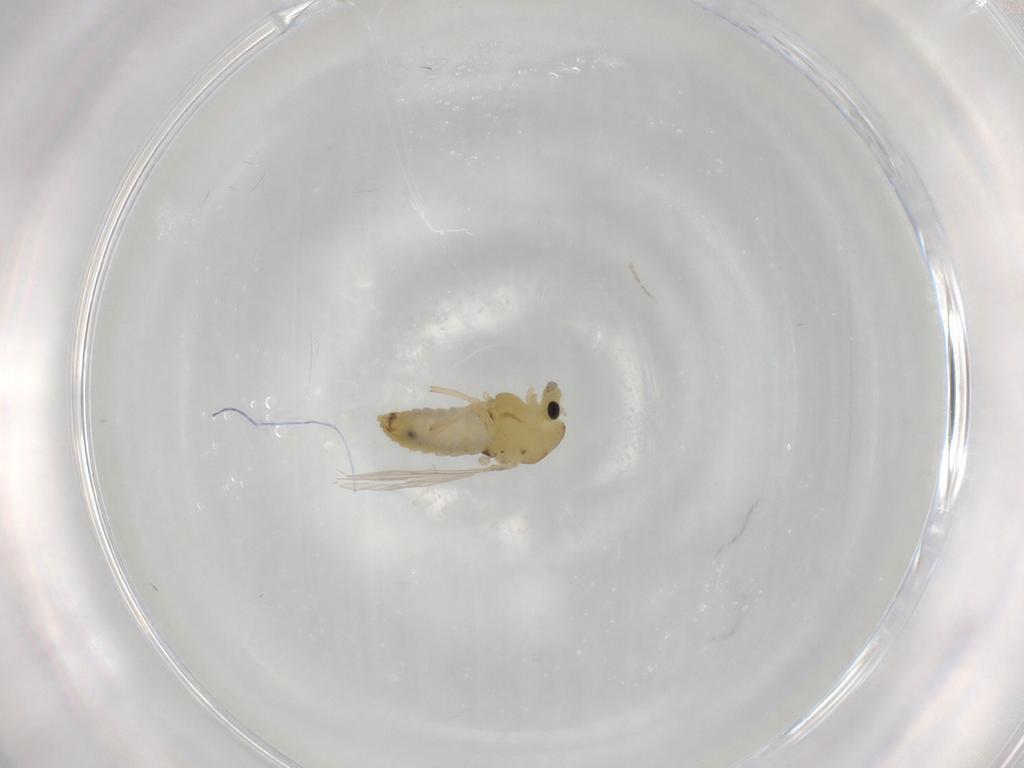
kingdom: Animalia
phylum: Arthropoda
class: Insecta
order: Diptera
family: Chironomidae
